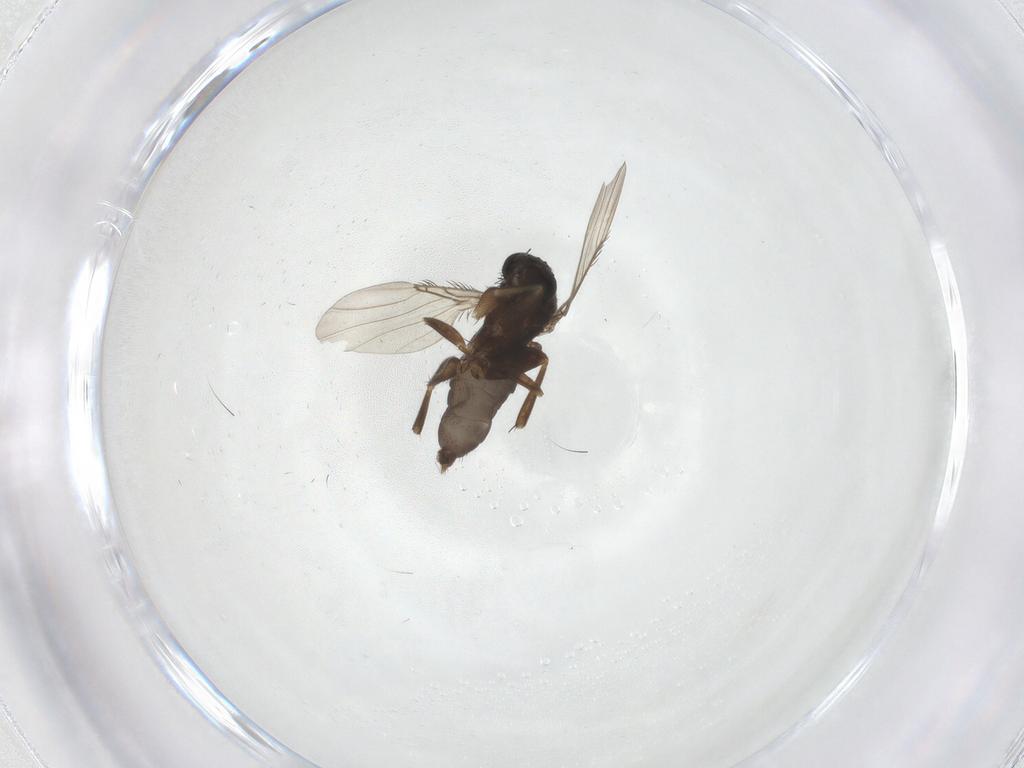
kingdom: Animalia
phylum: Arthropoda
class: Insecta
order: Diptera
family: Phoridae
